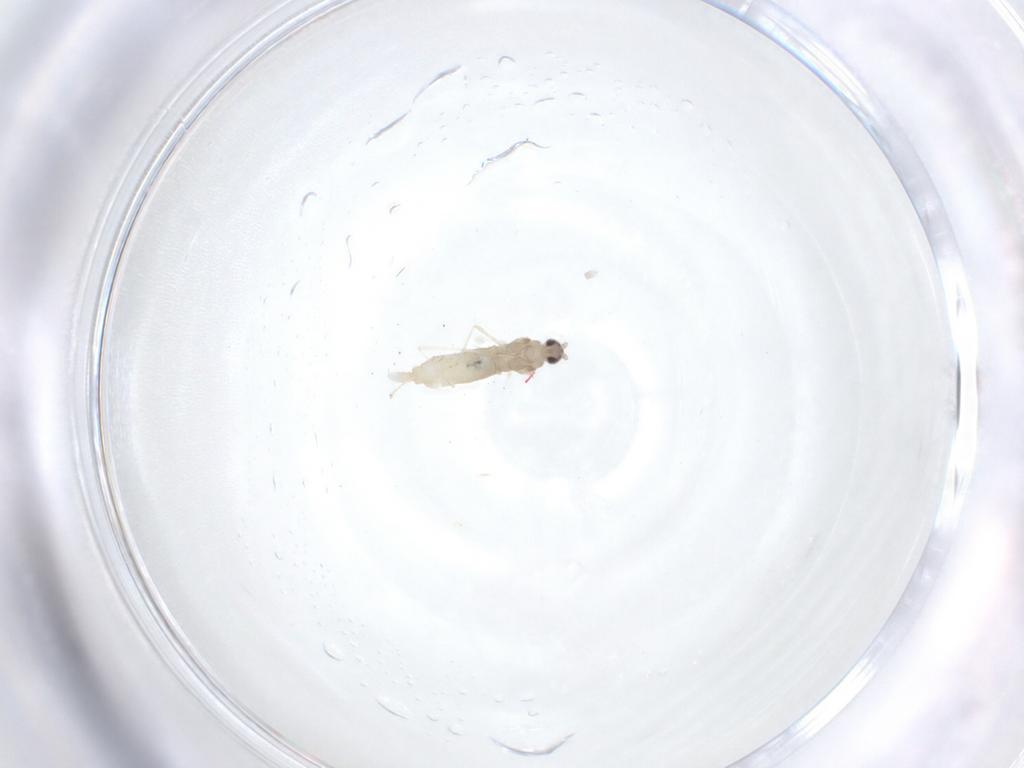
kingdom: Animalia
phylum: Arthropoda
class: Insecta
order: Diptera
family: Cecidomyiidae
